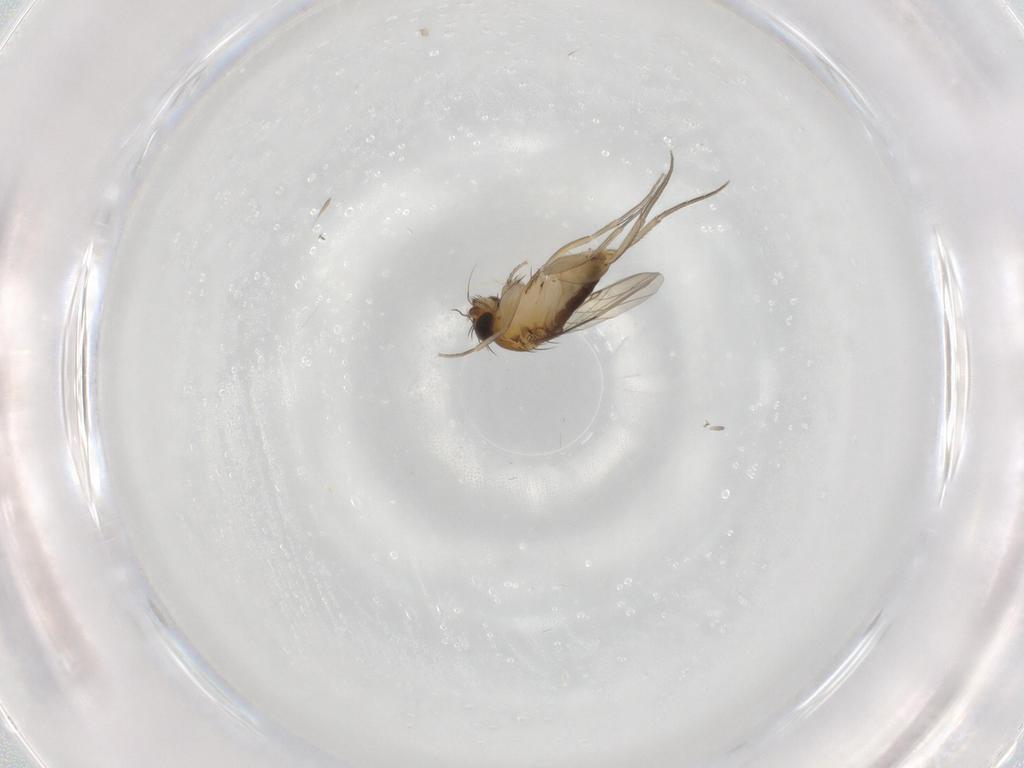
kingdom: Animalia
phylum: Arthropoda
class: Insecta
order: Diptera
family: Phoridae
